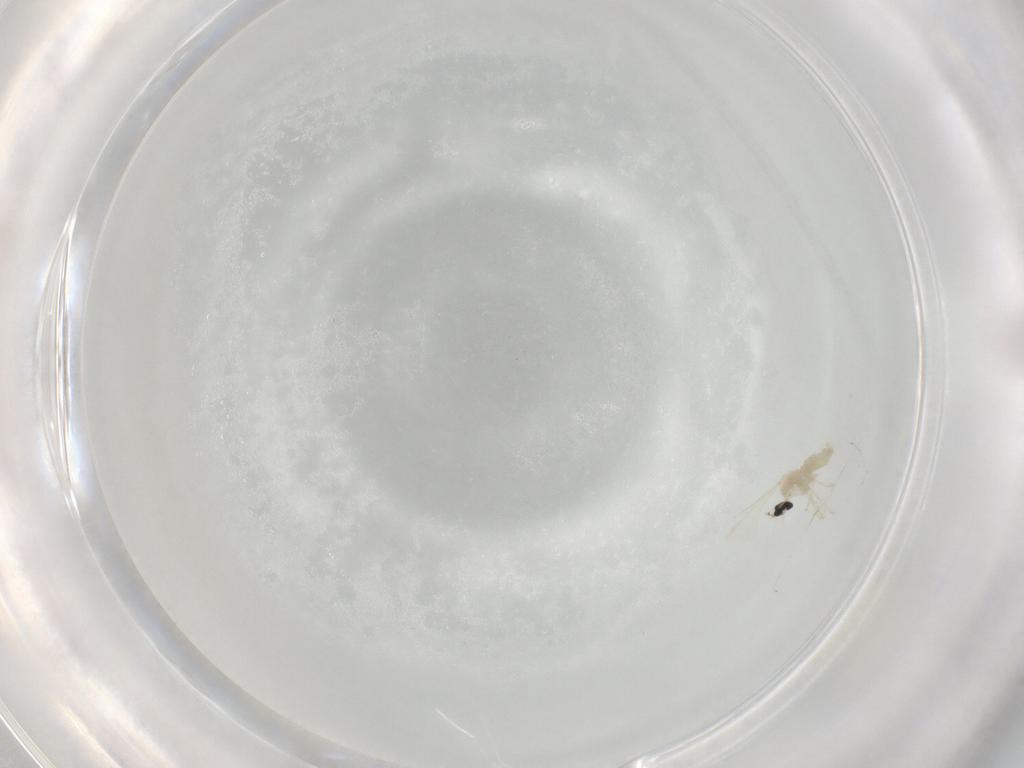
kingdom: Animalia
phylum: Arthropoda
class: Insecta
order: Diptera
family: Cecidomyiidae
